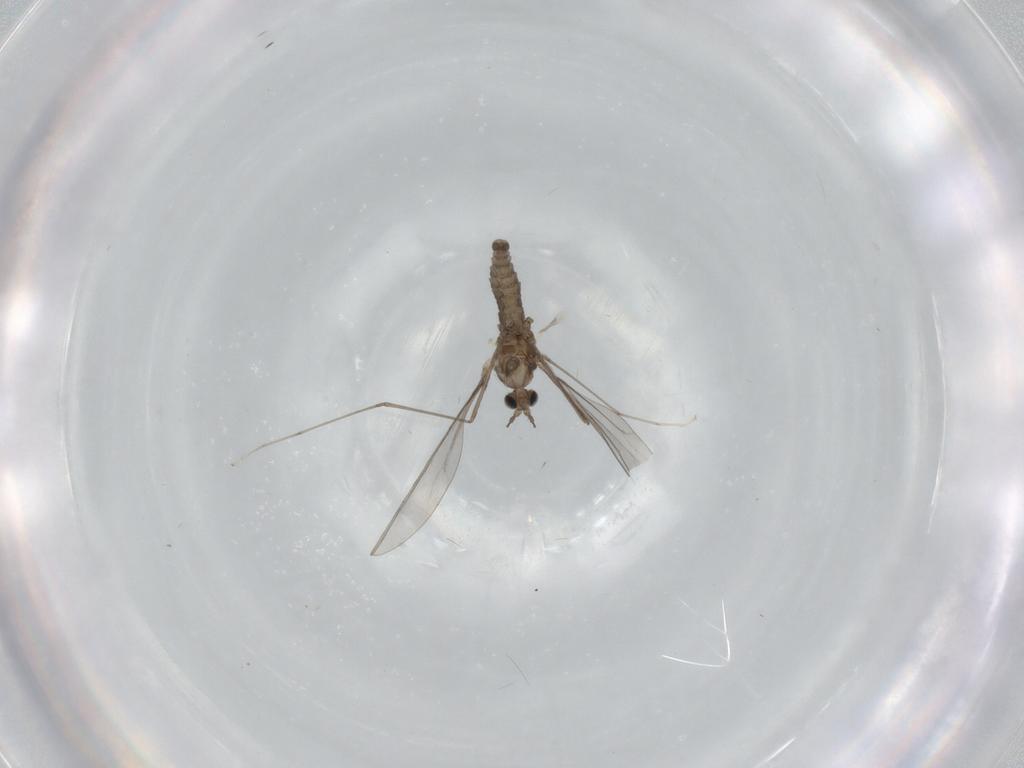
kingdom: Animalia
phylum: Arthropoda
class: Insecta
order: Diptera
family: Cecidomyiidae
